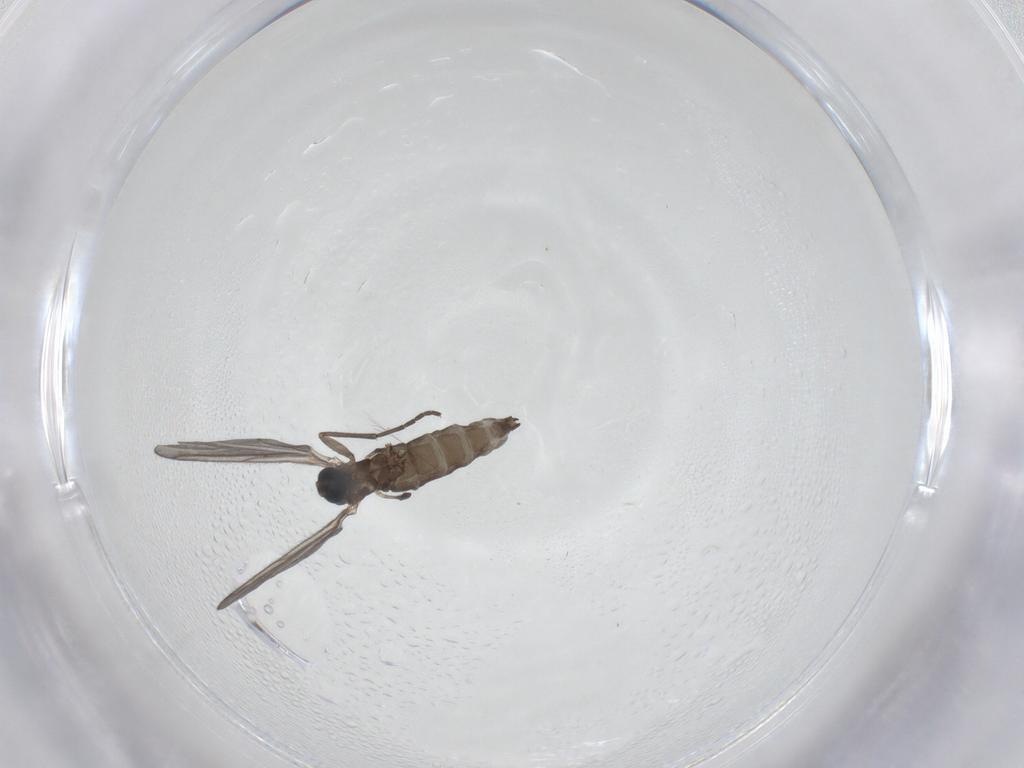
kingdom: Animalia
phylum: Arthropoda
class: Insecta
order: Diptera
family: Sciaridae
